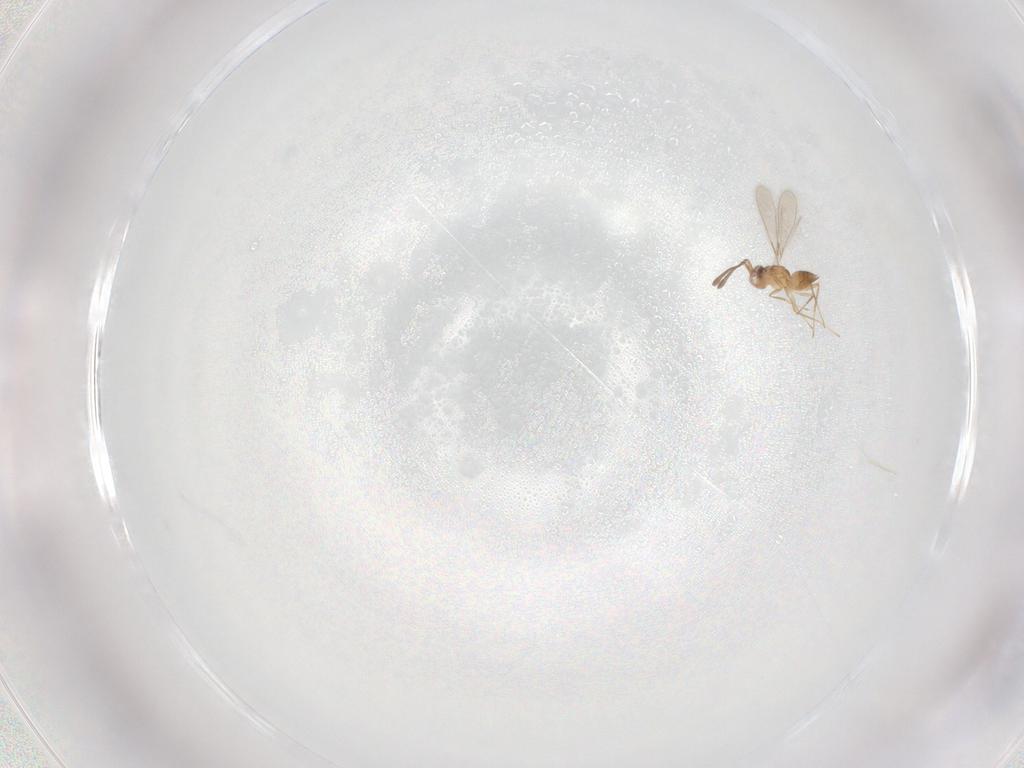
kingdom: Animalia
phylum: Arthropoda
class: Insecta
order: Hymenoptera
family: Mymaridae
